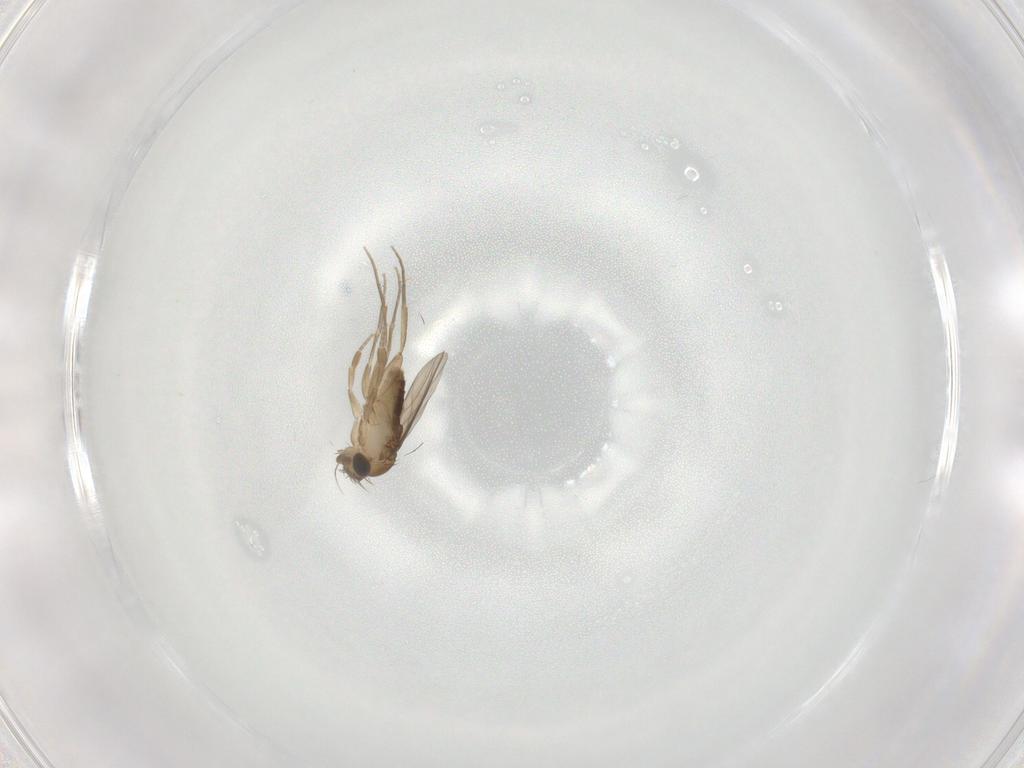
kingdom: Animalia
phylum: Arthropoda
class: Insecta
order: Diptera
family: Phoridae
